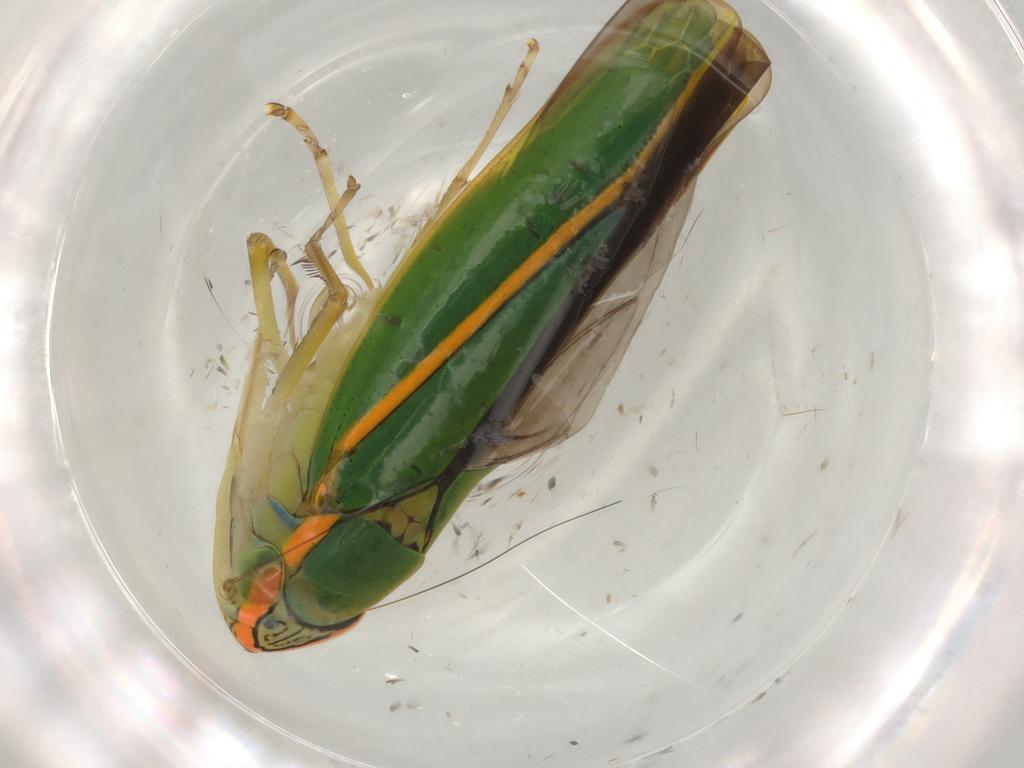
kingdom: Animalia
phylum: Arthropoda
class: Insecta
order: Hemiptera
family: Cicadellidae
